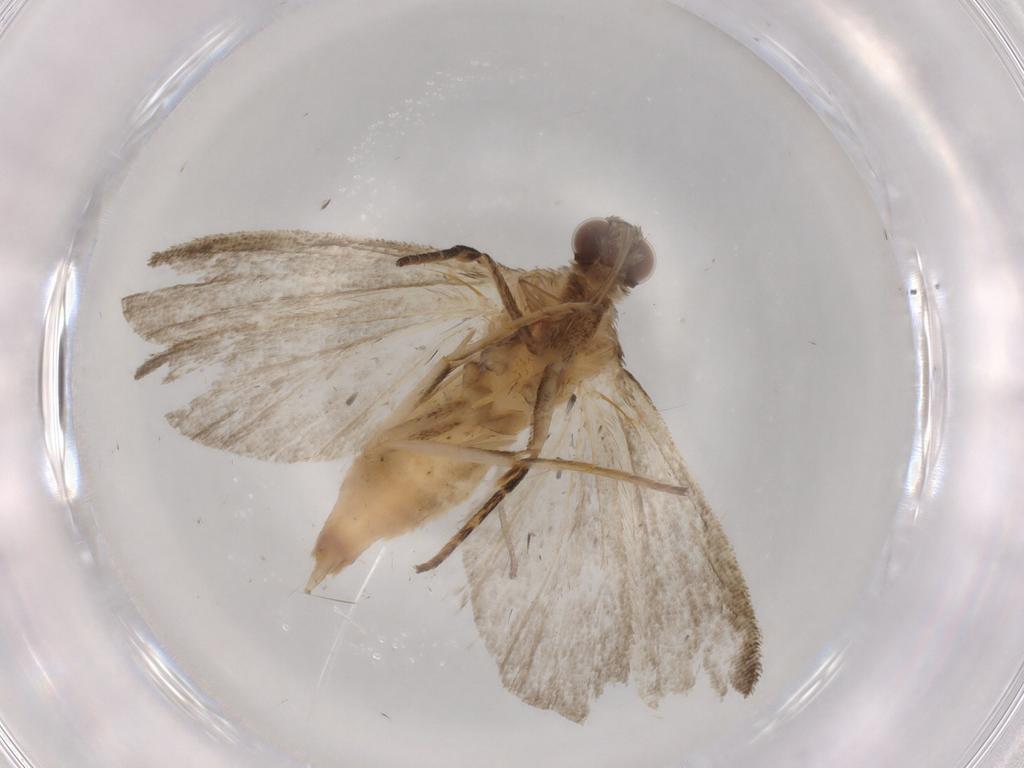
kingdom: Animalia
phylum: Arthropoda
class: Insecta
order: Lepidoptera
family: Noctuidae
